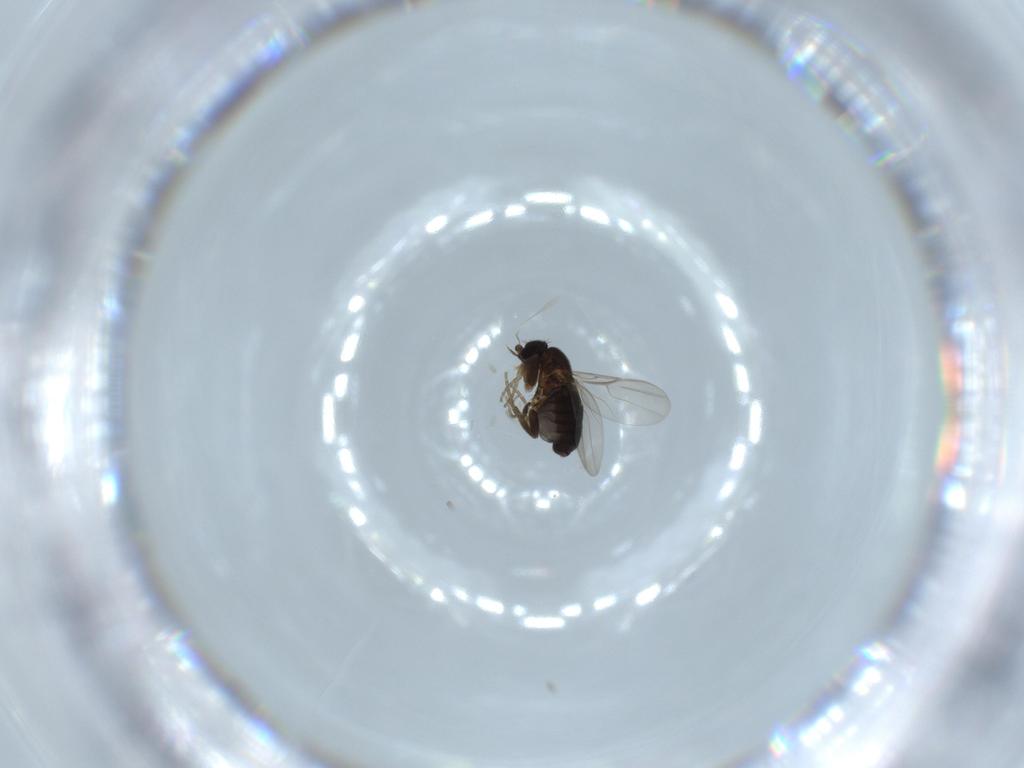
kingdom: Animalia
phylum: Arthropoda
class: Insecta
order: Diptera
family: Phoridae
